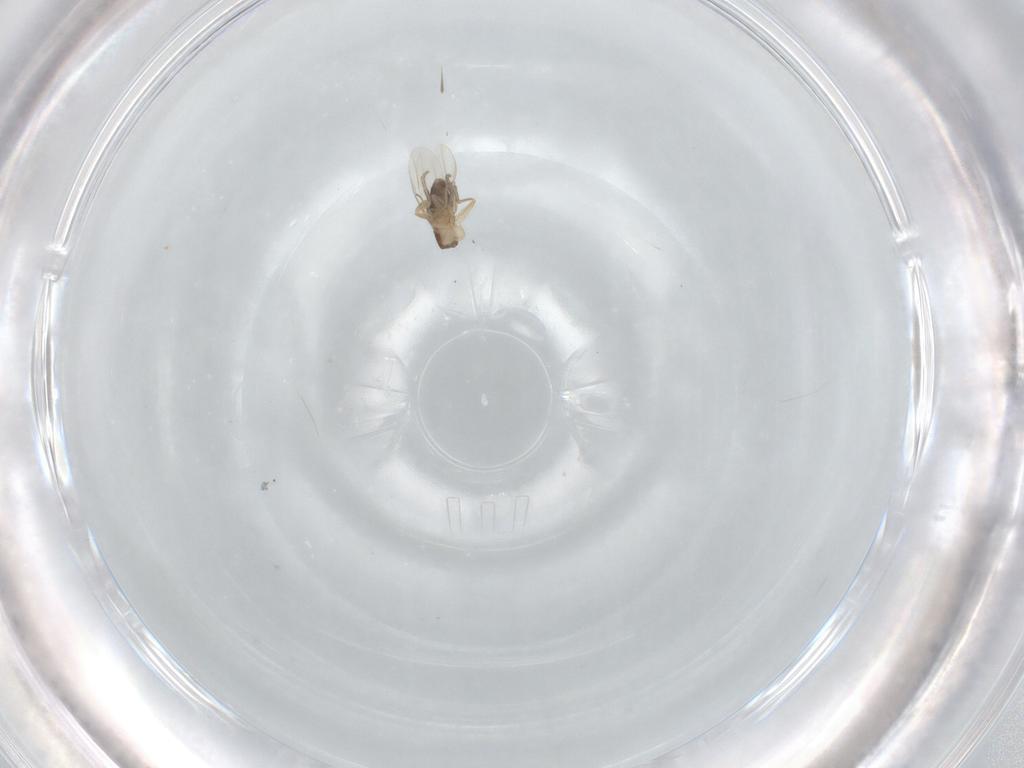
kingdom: Animalia
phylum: Arthropoda
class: Insecta
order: Diptera
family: Phoridae
